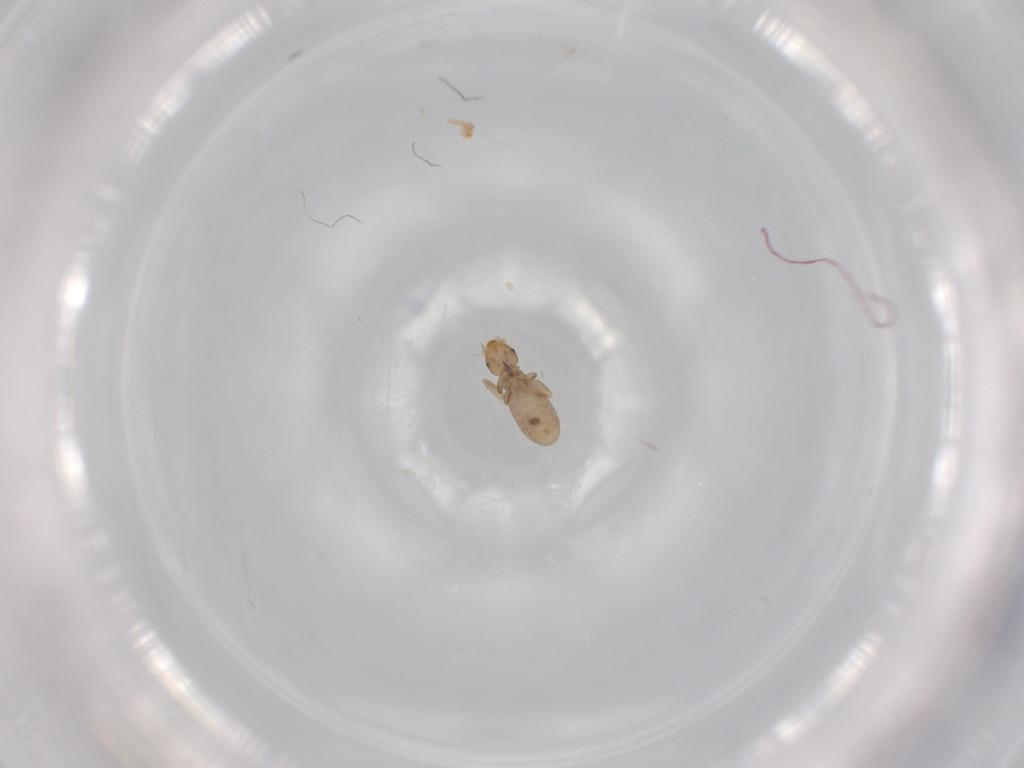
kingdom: Animalia
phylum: Arthropoda
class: Insecta
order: Psocodea
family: Liposcelididae
